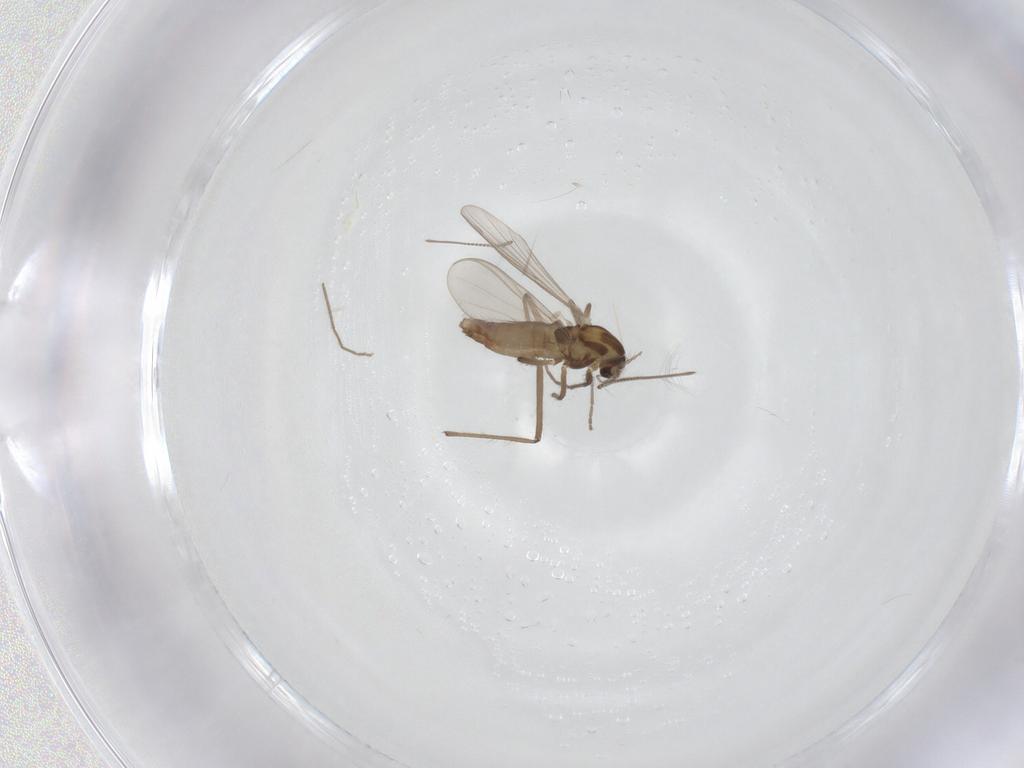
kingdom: Animalia
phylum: Arthropoda
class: Insecta
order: Diptera
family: Chironomidae
